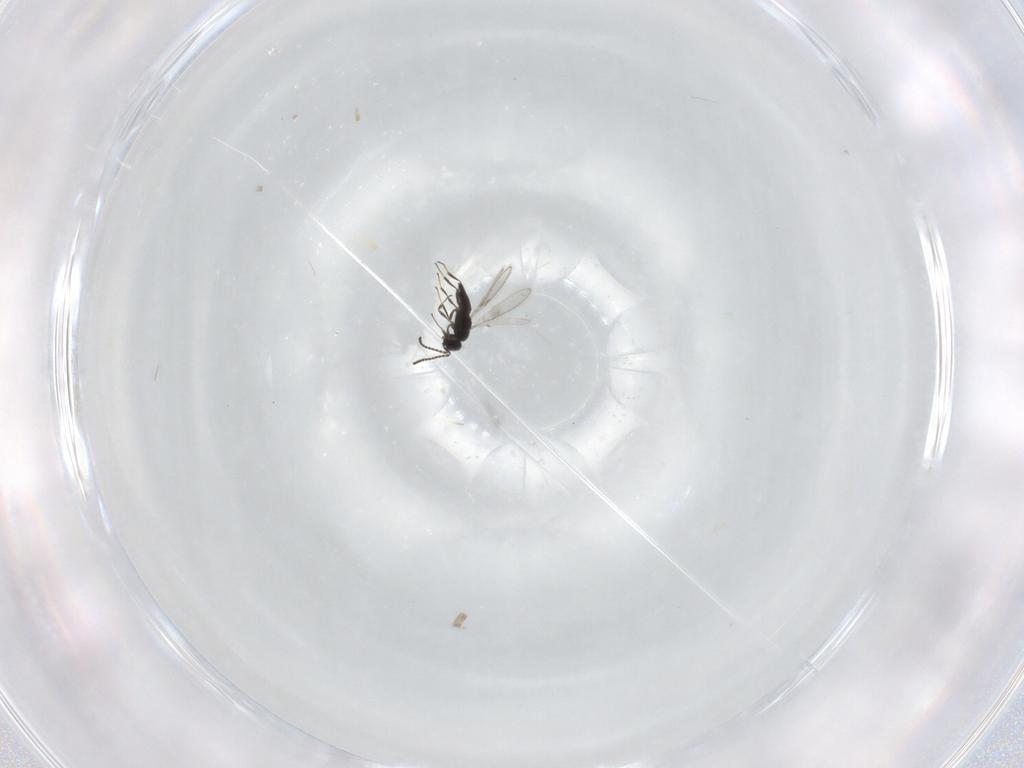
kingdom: Animalia
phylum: Arthropoda
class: Insecta
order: Hymenoptera
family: Scelionidae
